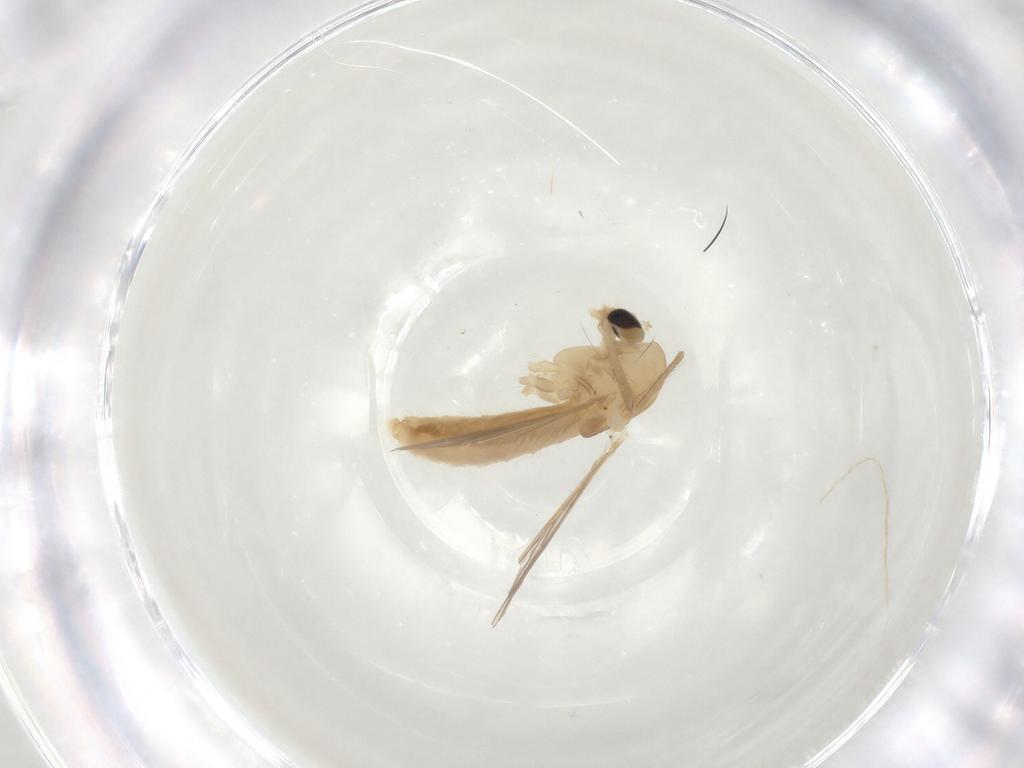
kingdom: Animalia
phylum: Arthropoda
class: Insecta
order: Diptera
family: Chironomidae
